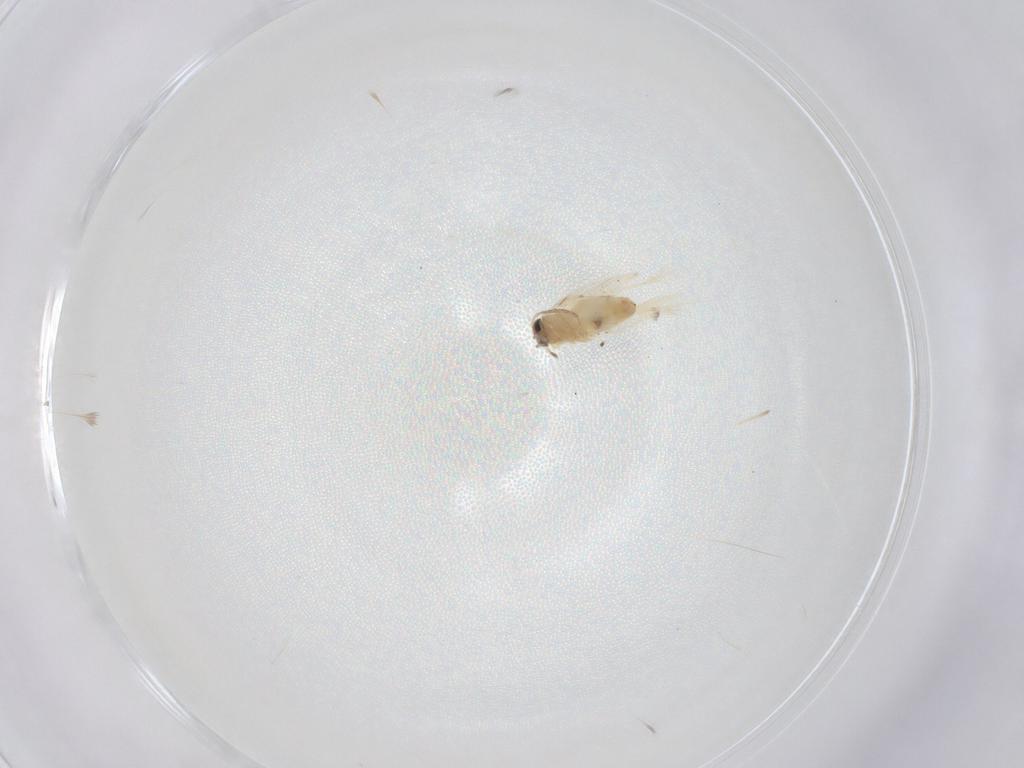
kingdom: Animalia
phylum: Arthropoda
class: Insecta
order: Lepidoptera
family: Crambidae
